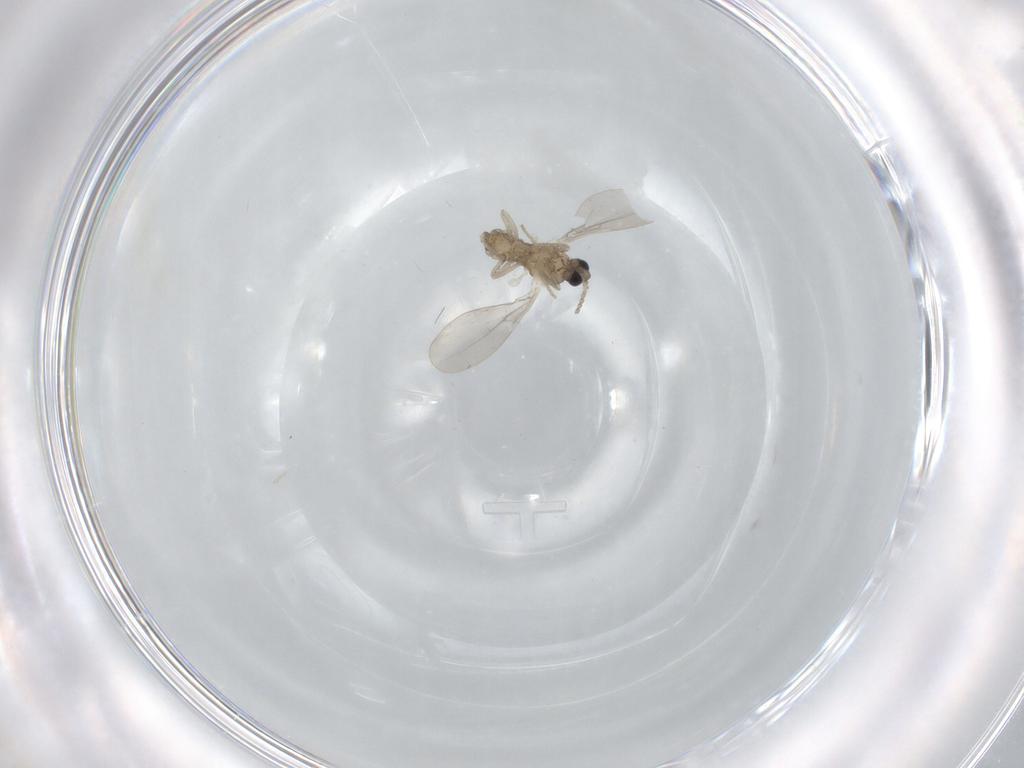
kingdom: Animalia
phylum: Arthropoda
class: Insecta
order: Diptera
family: Cecidomyiidae
